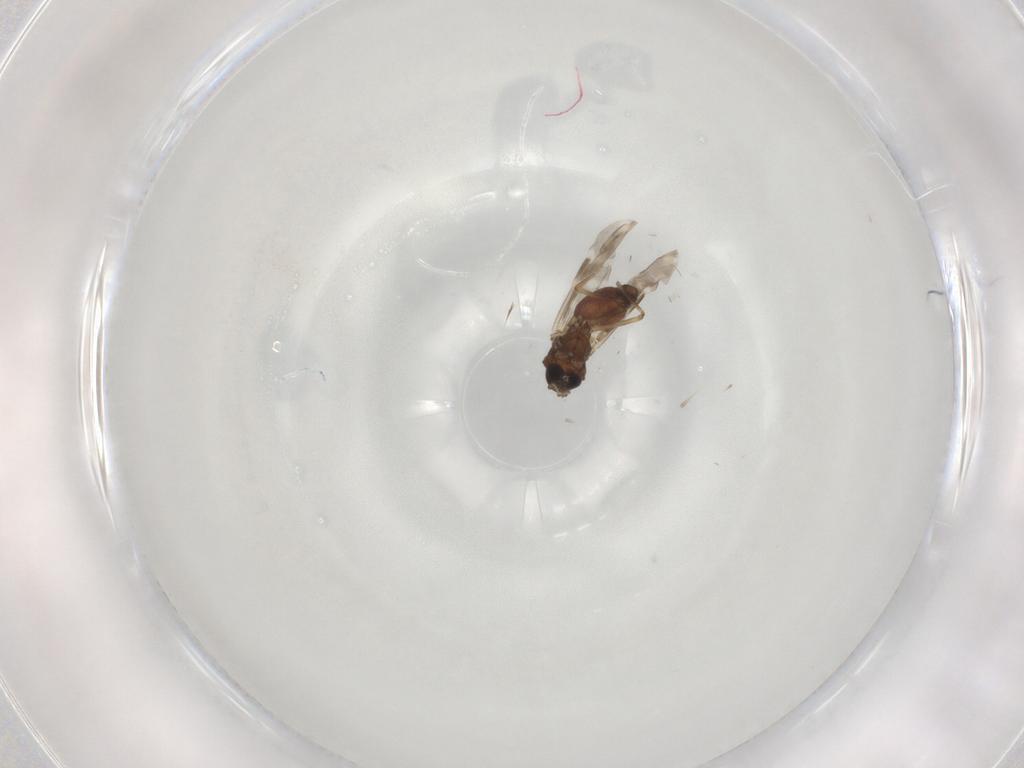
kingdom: Animalia
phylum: Arthropoda
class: Insecta
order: Diptera
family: Ceratopogonidae
